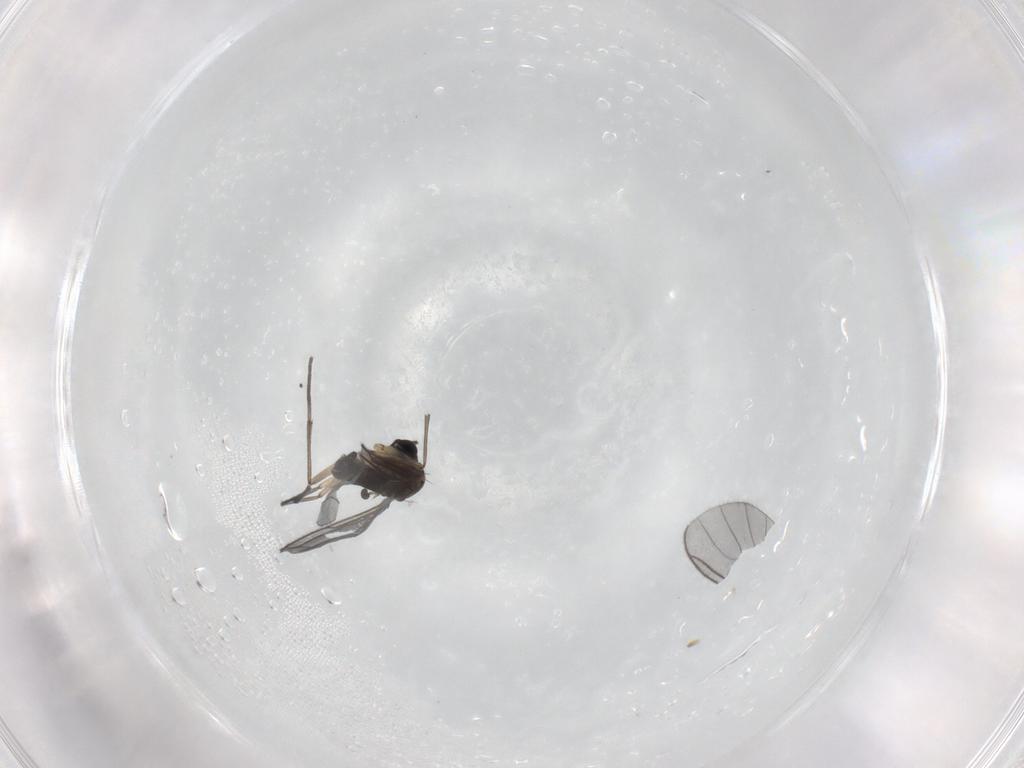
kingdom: Animalia
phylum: Arthropoda
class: Insecta
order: Diptera
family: Sciaridae
